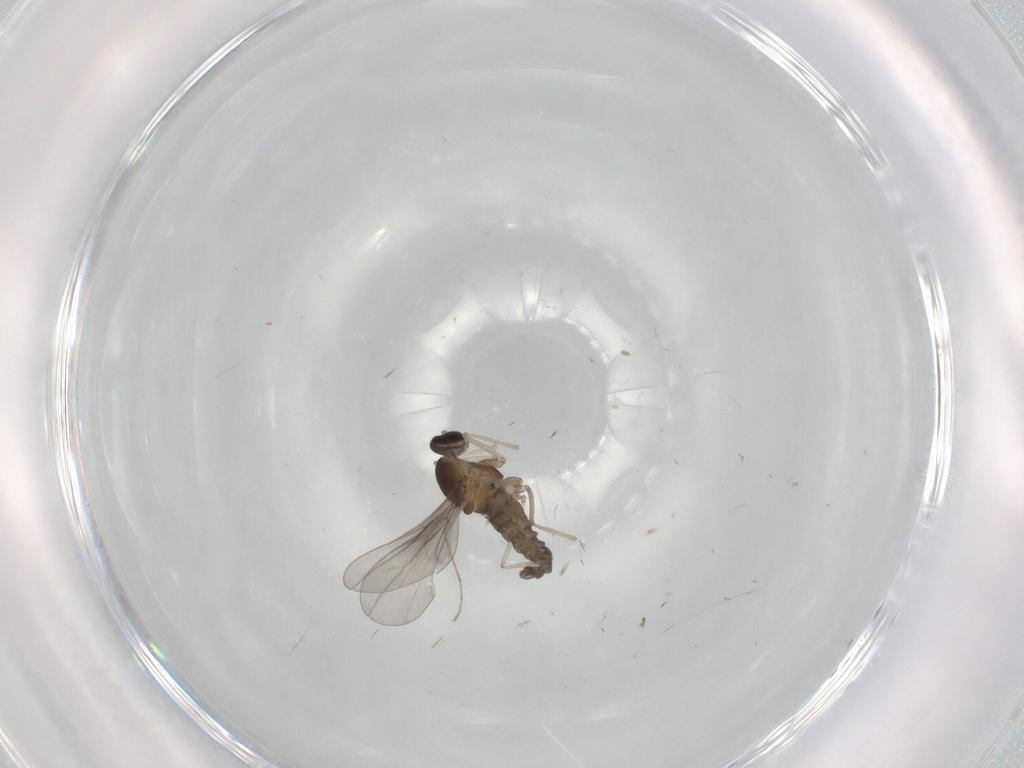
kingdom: Animalia
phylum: Arthropoda
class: Insecta
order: Diptera
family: Cecidomyiidae
